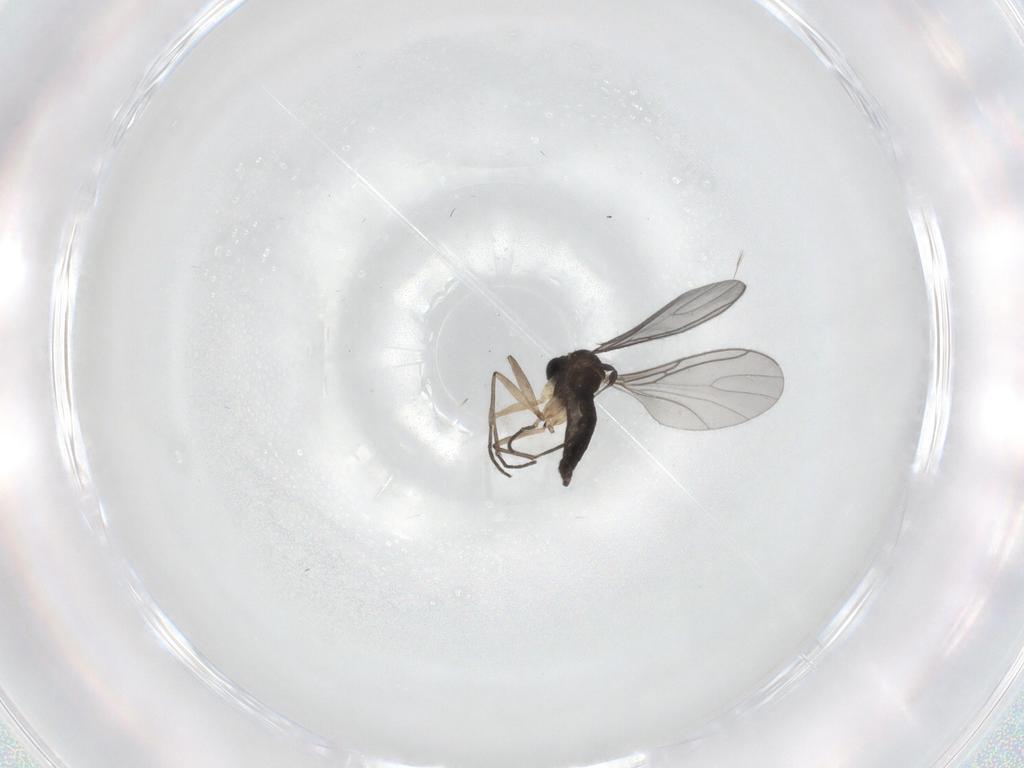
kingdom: Animalia
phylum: Arthropoda
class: Insecta
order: Diptera
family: Sciaridae
